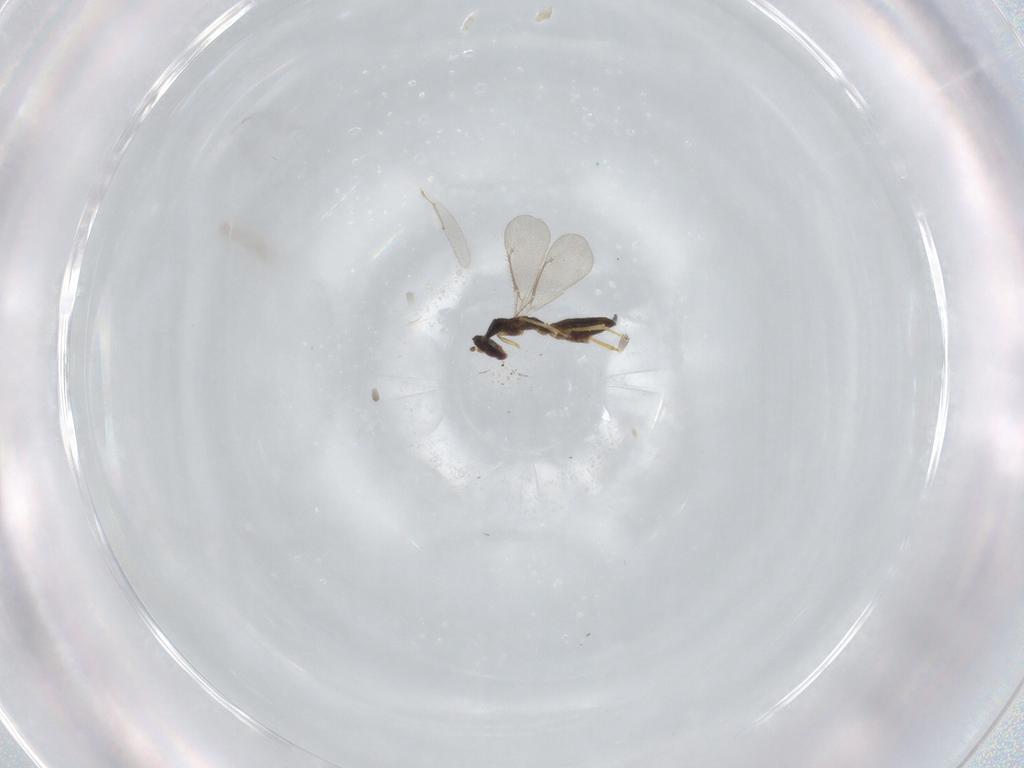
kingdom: Animalia
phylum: Arthropoda
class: Insecta
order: Hymenoptera
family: Eulophidae
